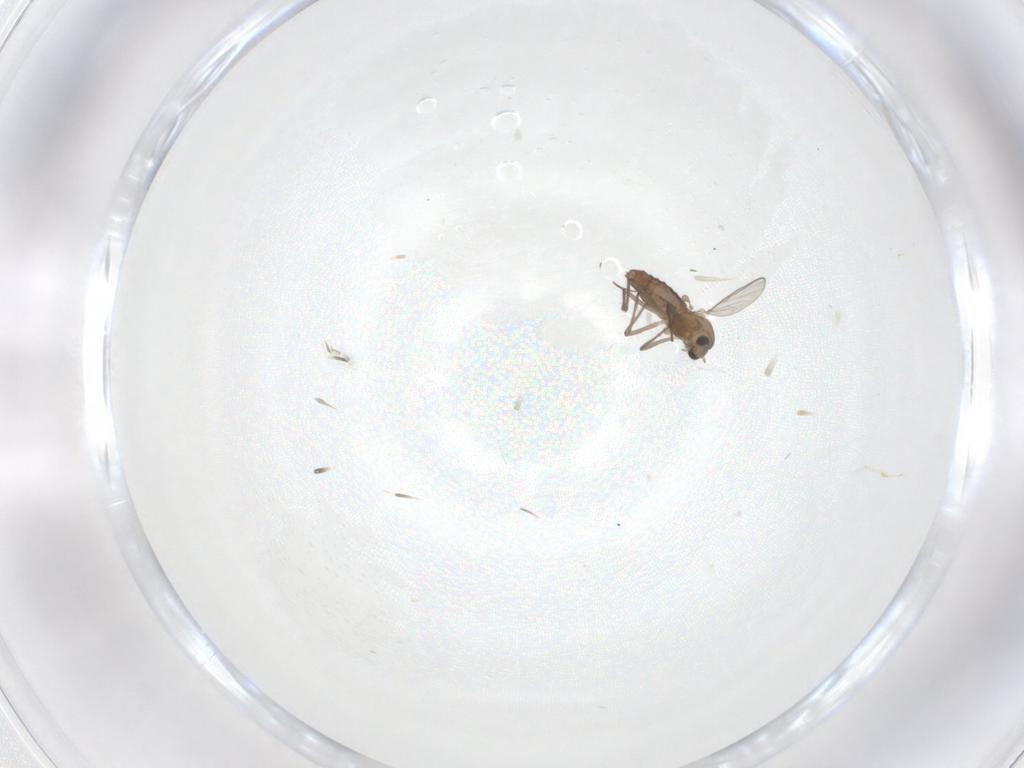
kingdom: Animalia
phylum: Arthropoda
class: Insecta
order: Diptera
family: Chironomidae
